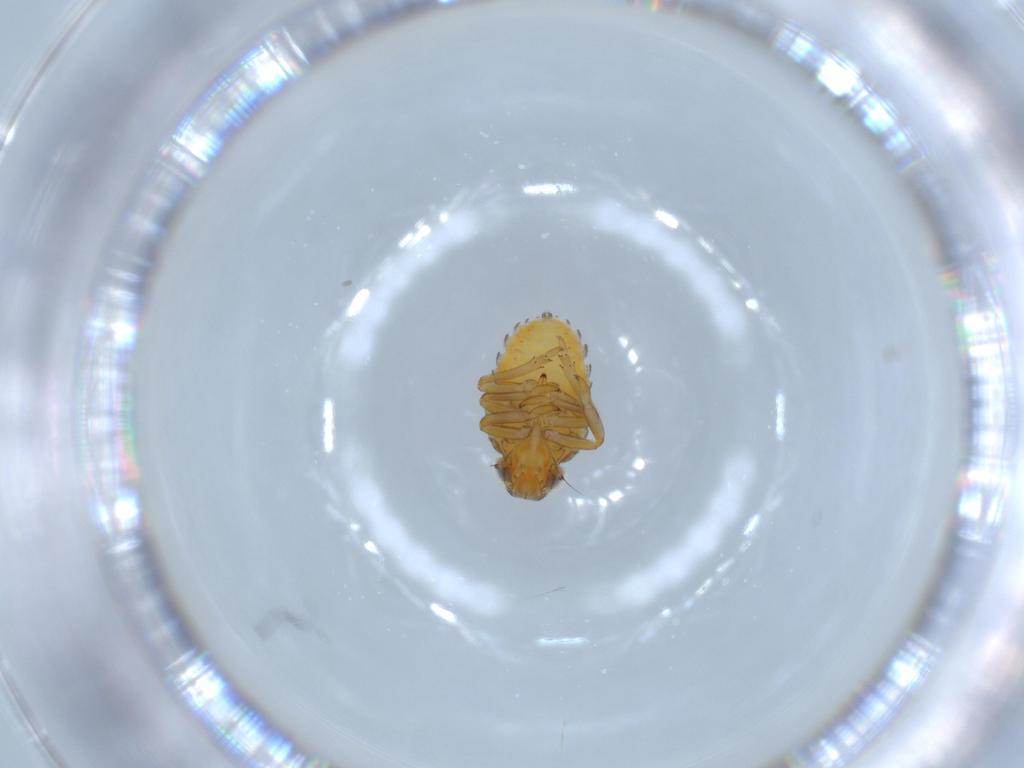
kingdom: Animalia
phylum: Arthropoda
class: Insecta
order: Hemiptera
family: Issidae
